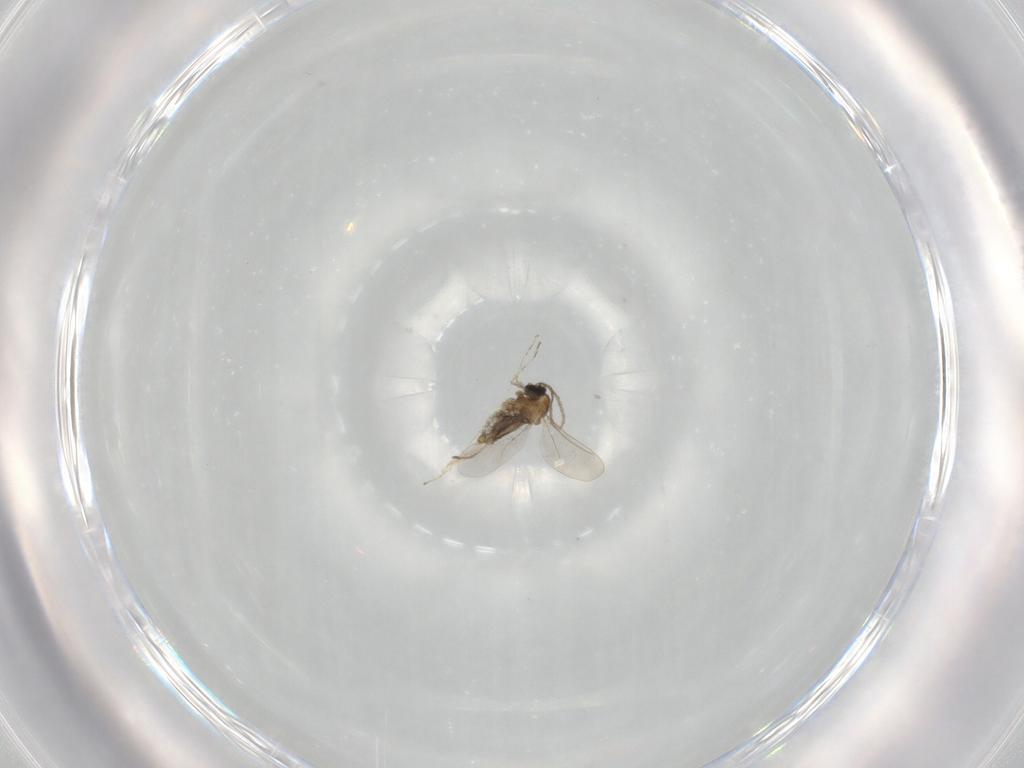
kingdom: Animalia
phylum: Arthropoda
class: Insecta
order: Diptera
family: Cecidomyiidae
